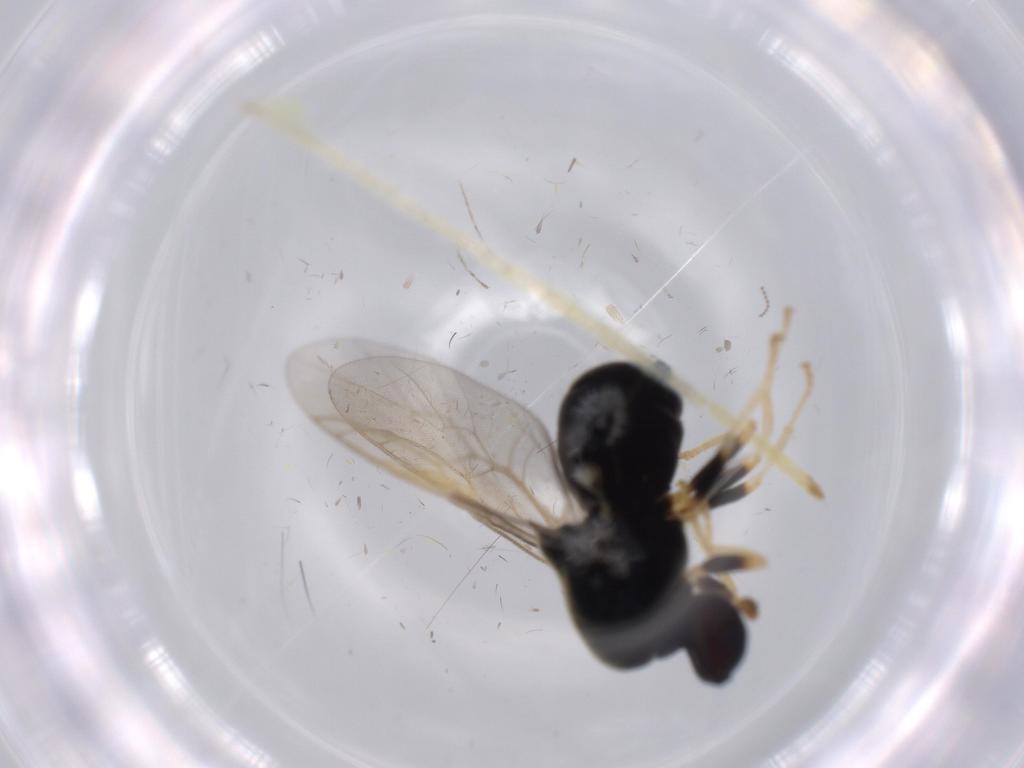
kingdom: Animalia
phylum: Arthropoda
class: Insecta
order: Diptera
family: Stratiomyidae
